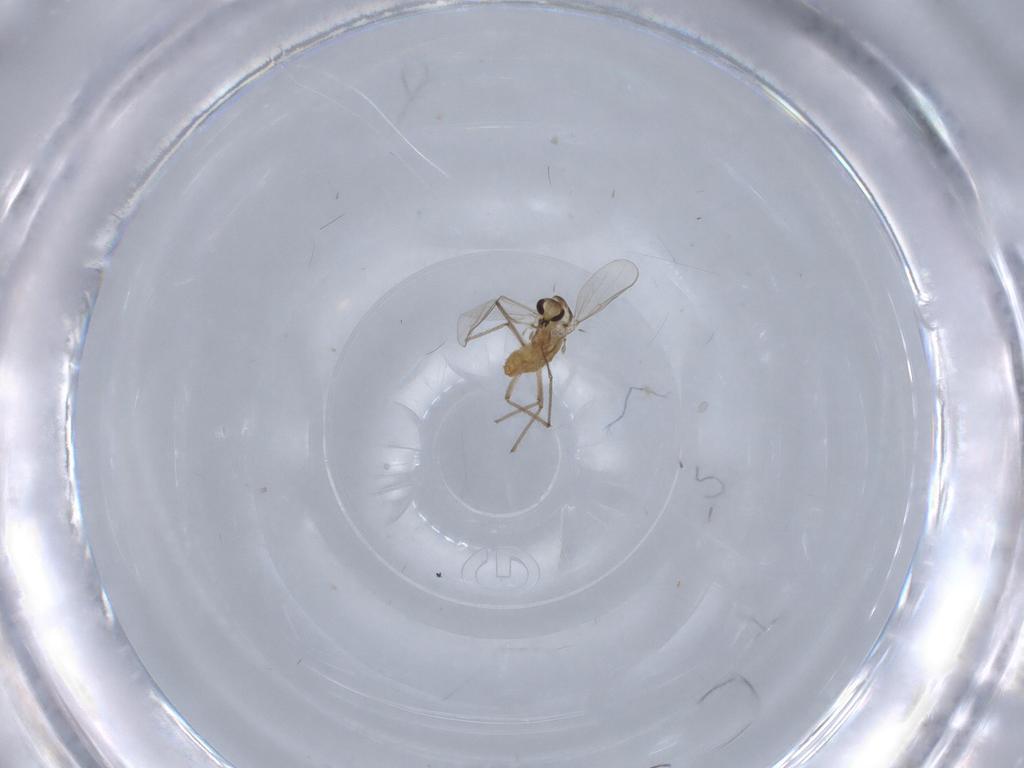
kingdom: Animalia
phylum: Arthropoda
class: Insecta
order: Diptera
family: Chironomidae
